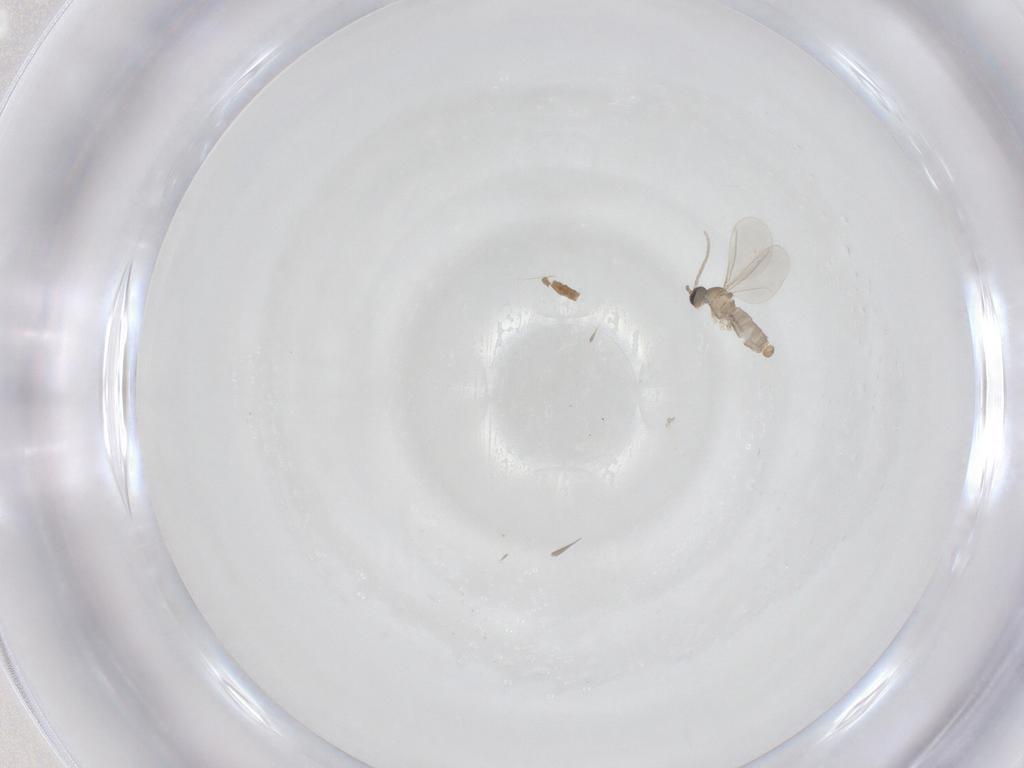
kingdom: Animalia
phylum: Arthropoda
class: Insecta
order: Diptera
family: Cecidomyiidae
